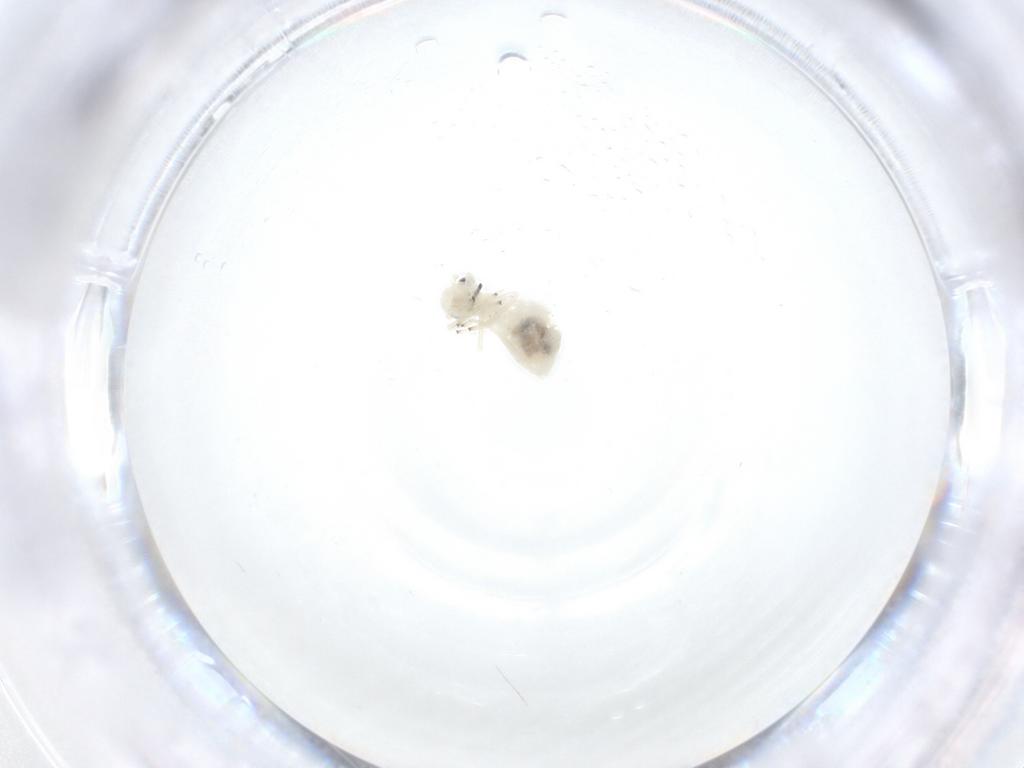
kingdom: Animalia
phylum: Arthropoda
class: Insecta
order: Psocodea
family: Caeciliusidae
